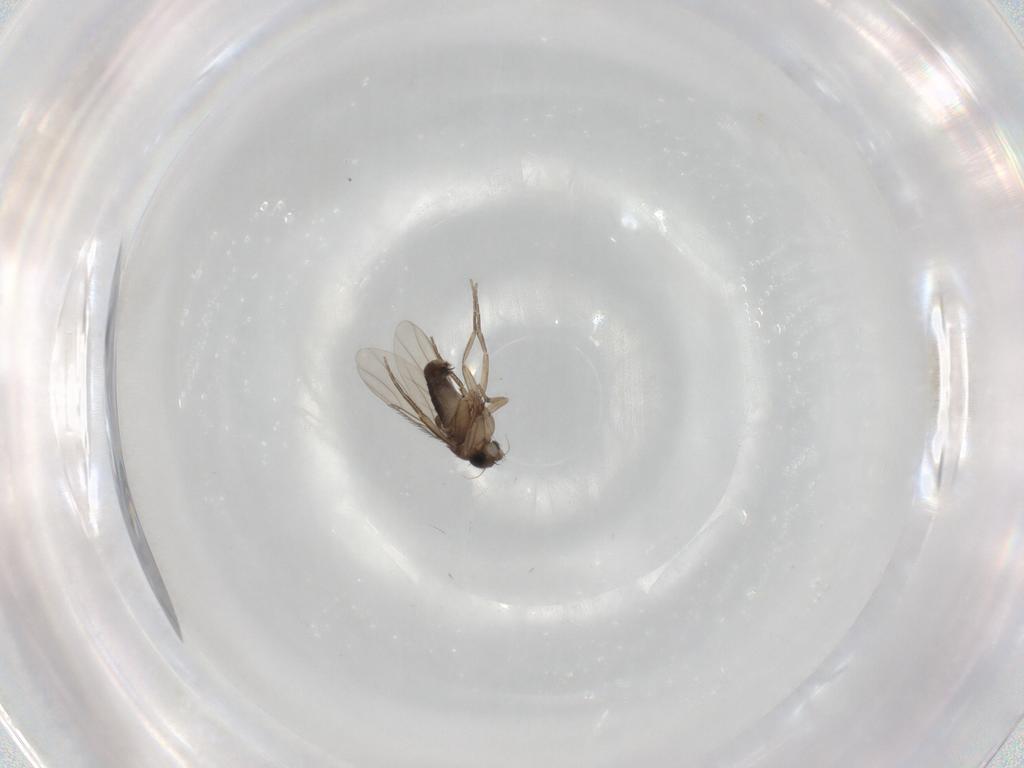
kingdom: Animalia
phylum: Arthropoda
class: Insecta
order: Diptera
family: Phoridae
